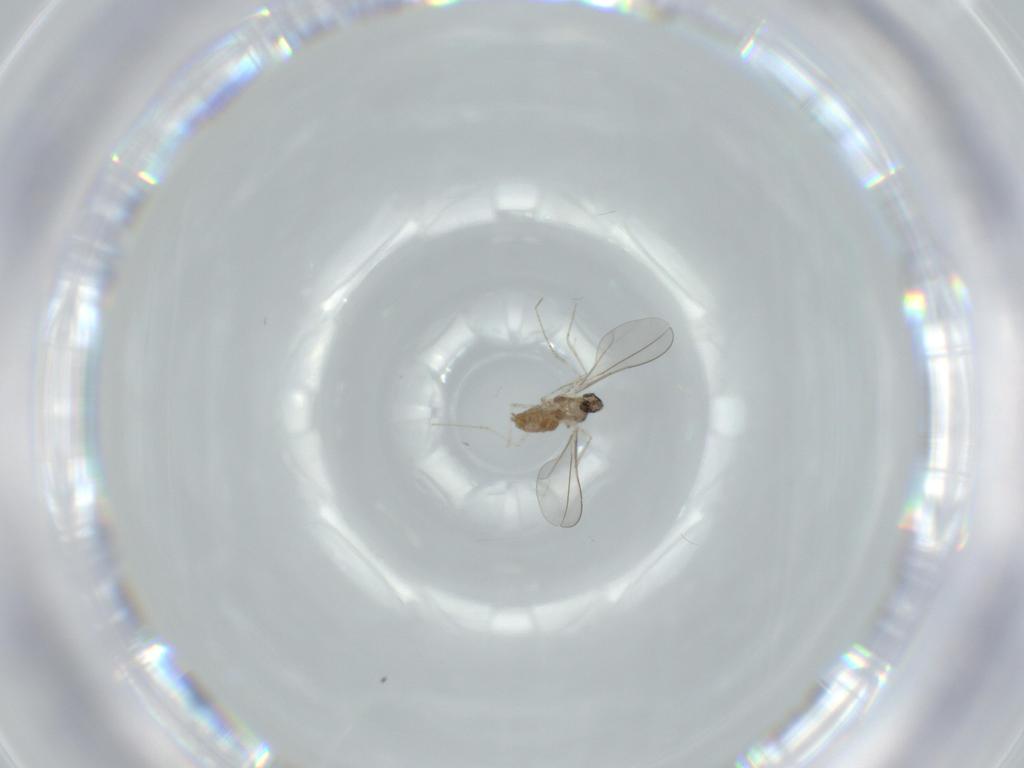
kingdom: Animalia
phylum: Arthropoda
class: Insecta
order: Diptera
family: Cecidomyiidae
